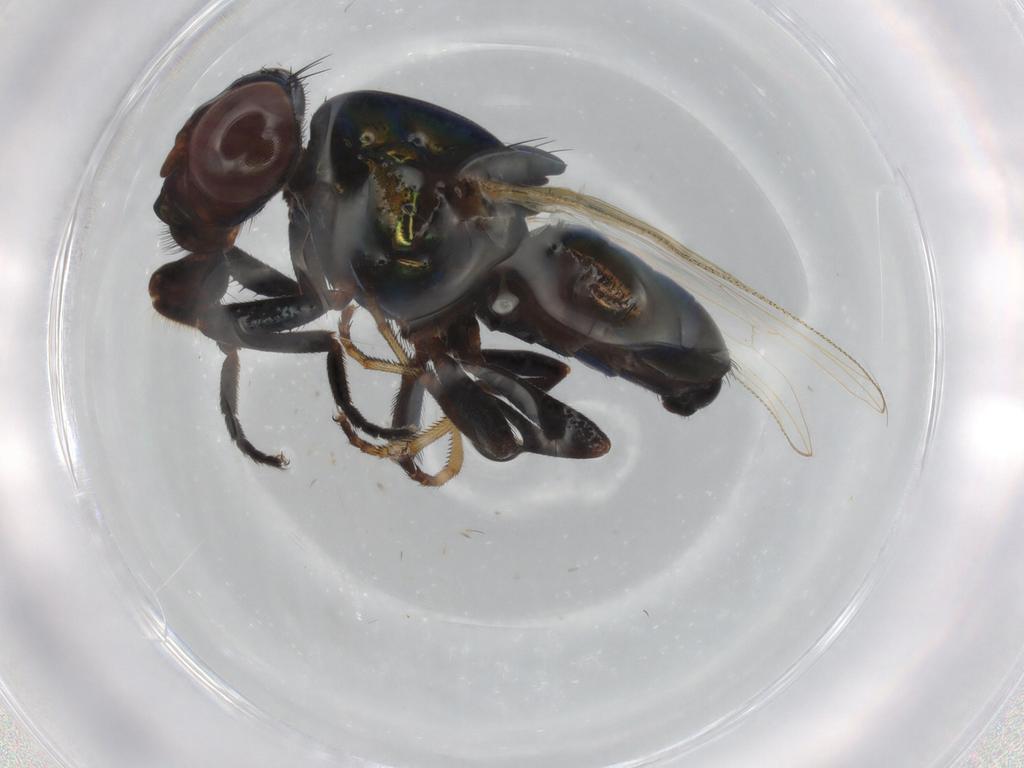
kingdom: Animalia
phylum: Arthropoda
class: Insecta
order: Diptera
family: Ulidiidae
